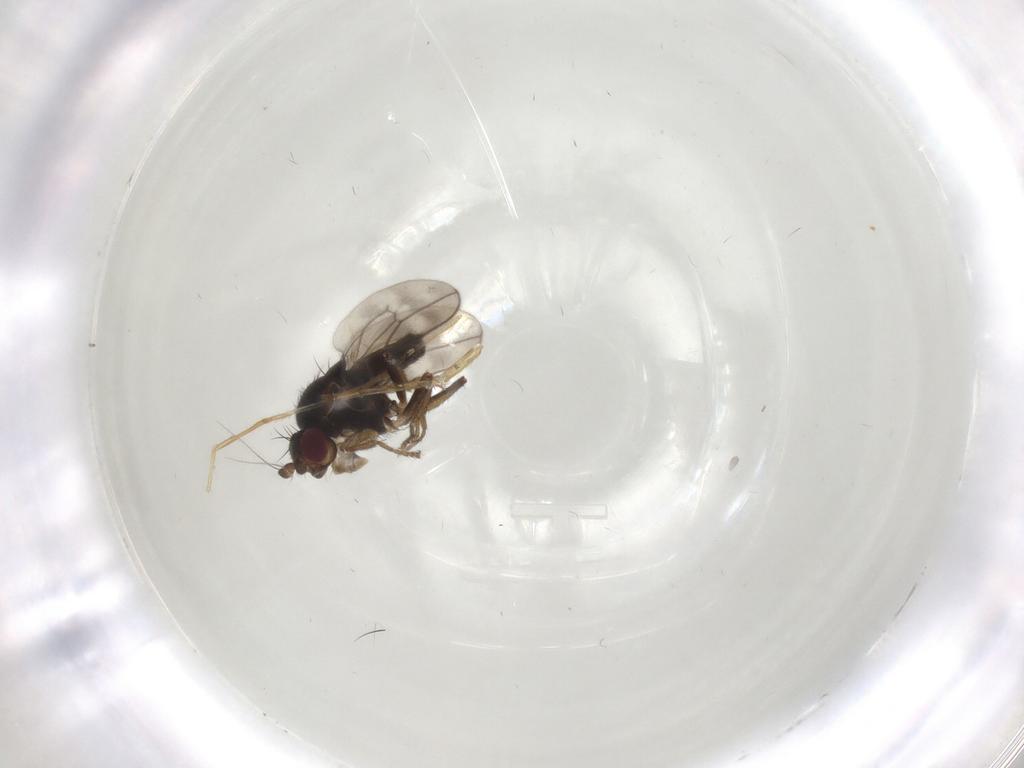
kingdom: Animalia
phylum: Arthropoda
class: Insecta
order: Diptera
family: Sphaeroceridae
